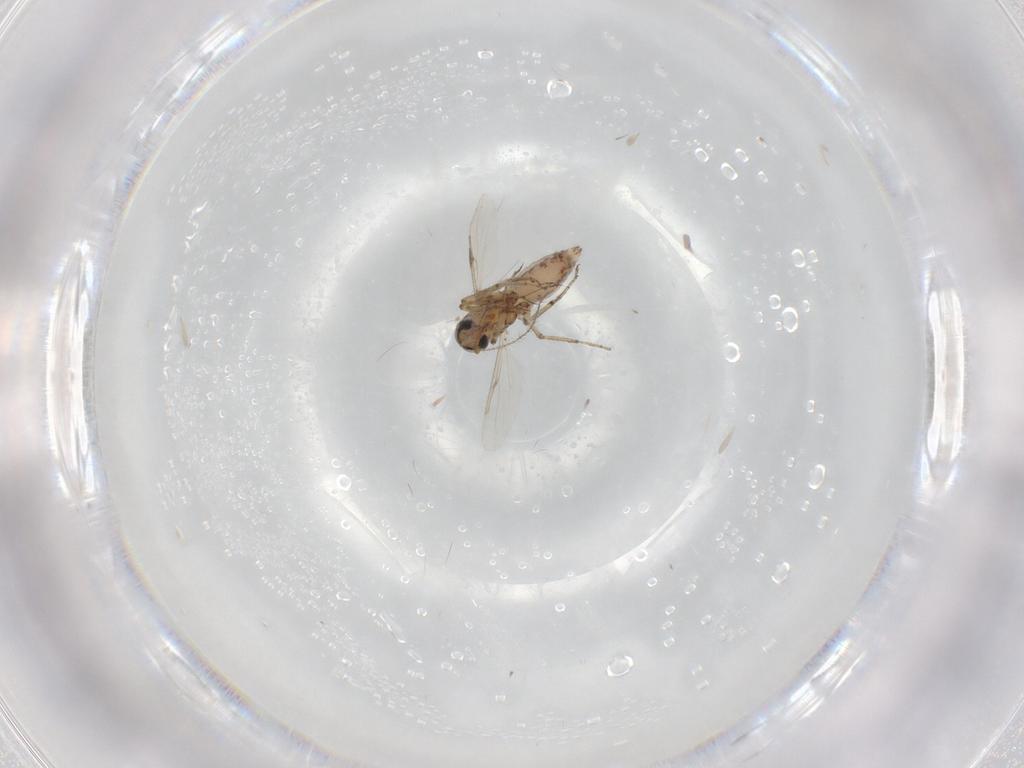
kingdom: Animalia
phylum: Arthropoda
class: Insecta
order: Diptera
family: Ceratopogonidae
